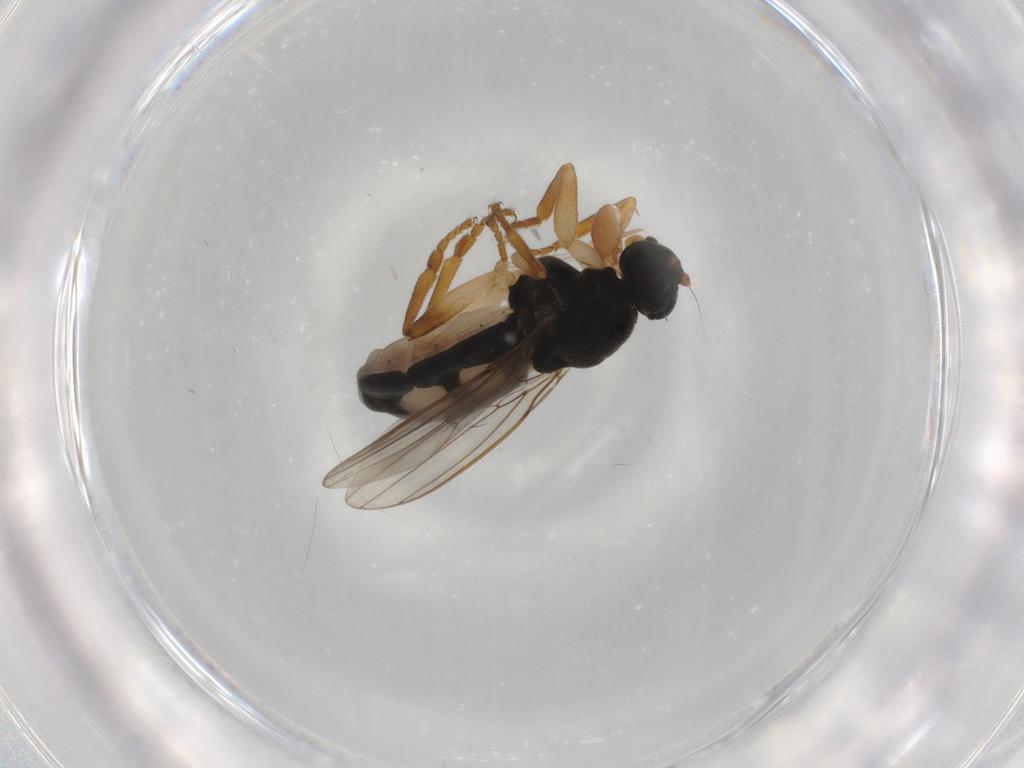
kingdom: Animalia
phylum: Arthropoda
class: Insecta
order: Diptera
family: Sphaeroceridae
